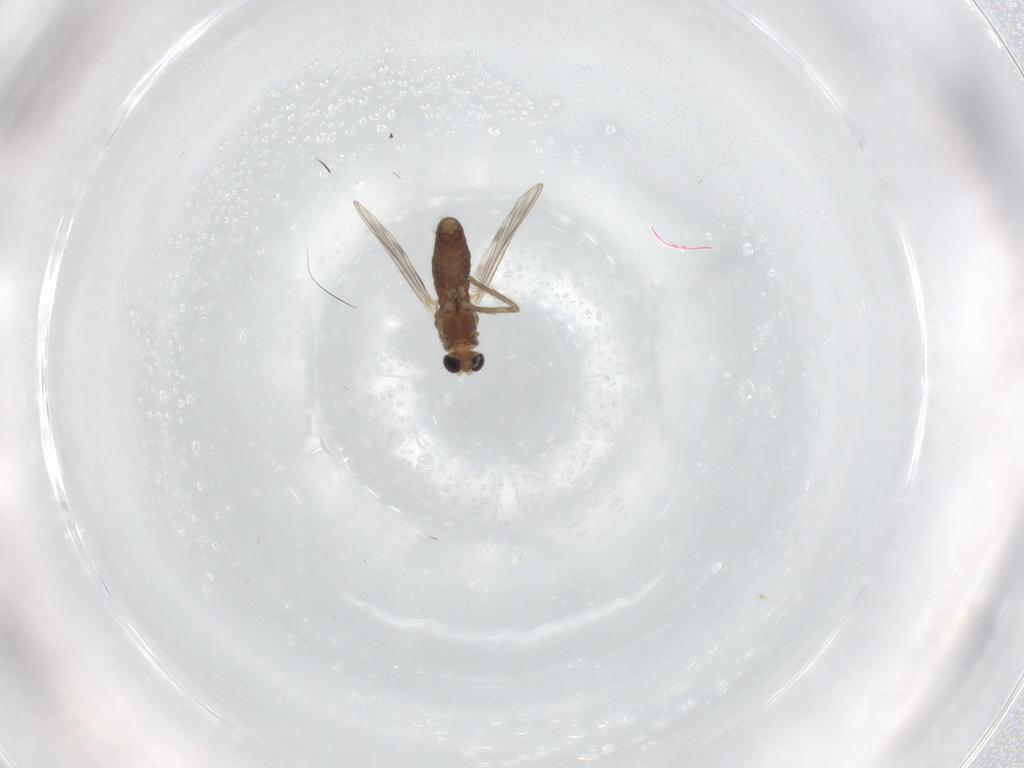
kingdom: Animalia
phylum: Arthropoda
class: Insecta
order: Diptera
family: Chironomidae
